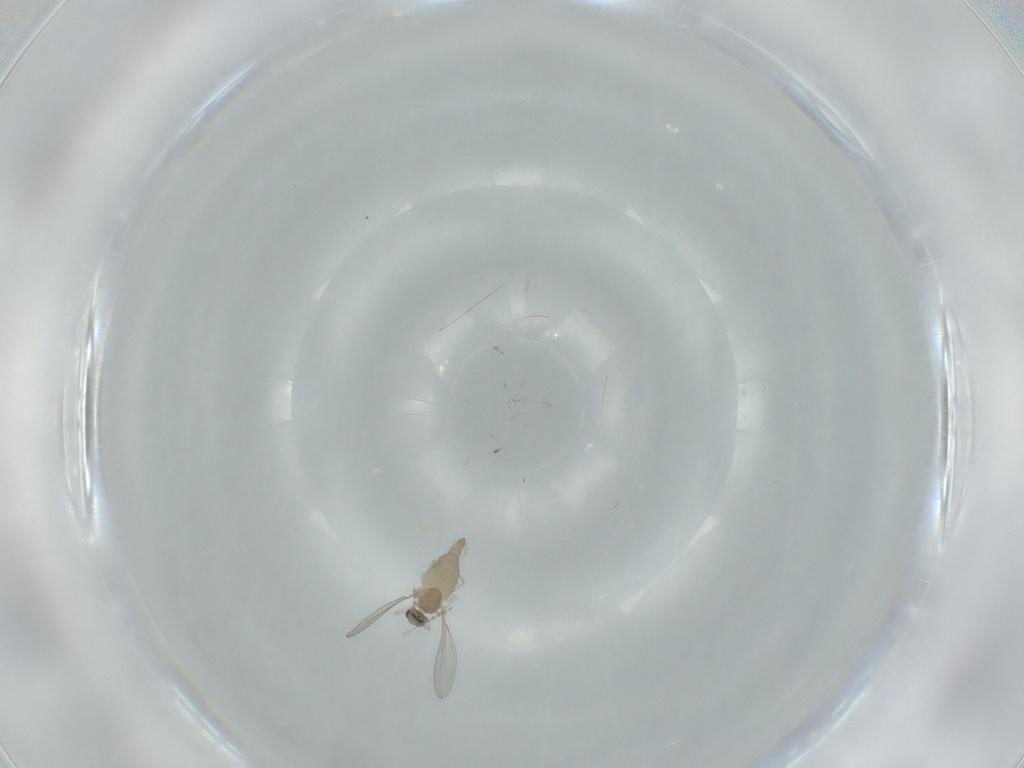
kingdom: Animalia
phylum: Arthropoda
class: Insecta
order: Diptera
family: Cecidomyiidae
